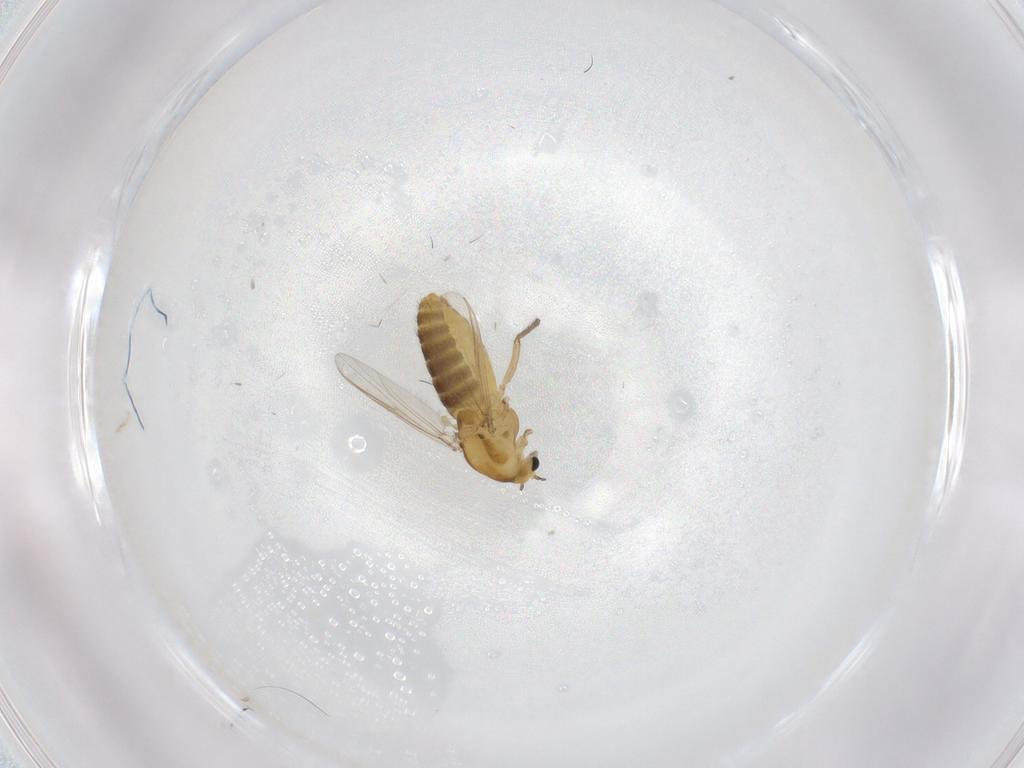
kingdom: Animalia
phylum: Arthropoda
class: Insecta
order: Diptera
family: Chironomidae
